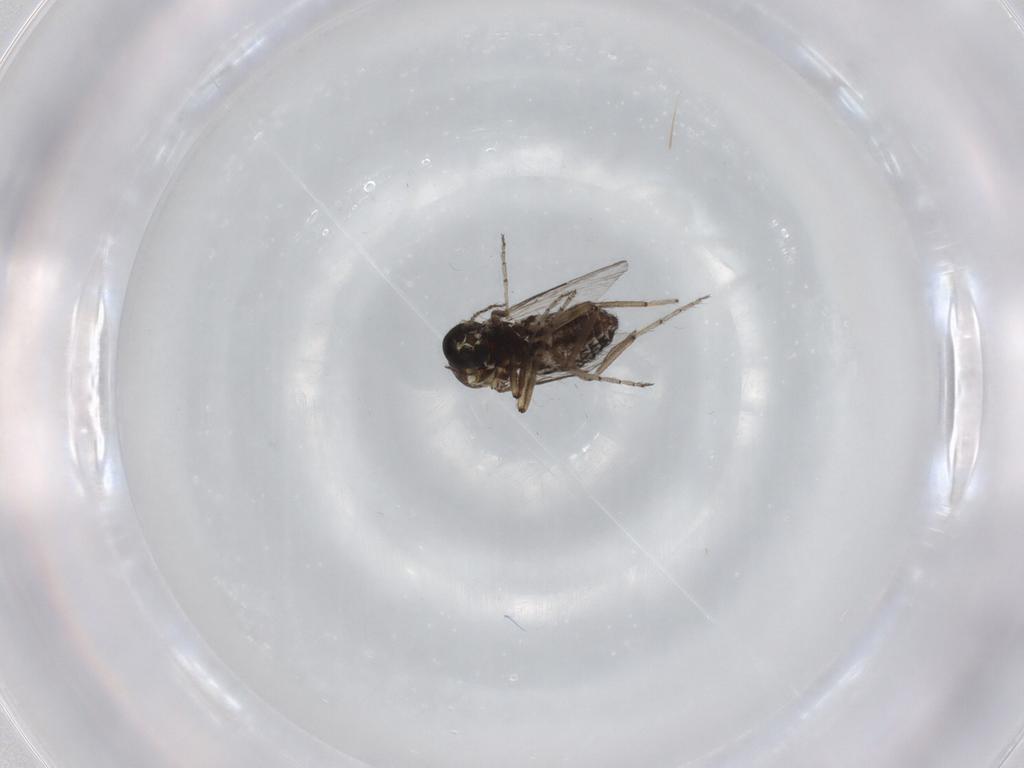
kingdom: Animalia
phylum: Arthropoda
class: Insecta
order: Diptera
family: Ceratopogonidae
